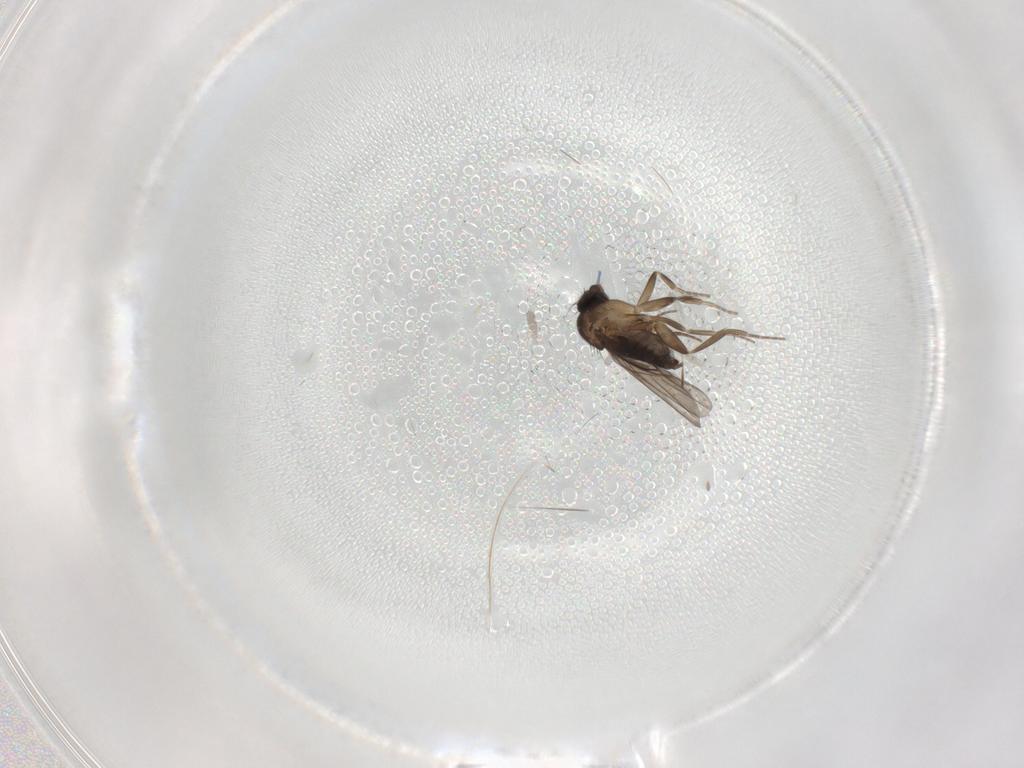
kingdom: Animalia
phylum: Arthropoda
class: Insecta
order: Diptera
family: Phoridae
